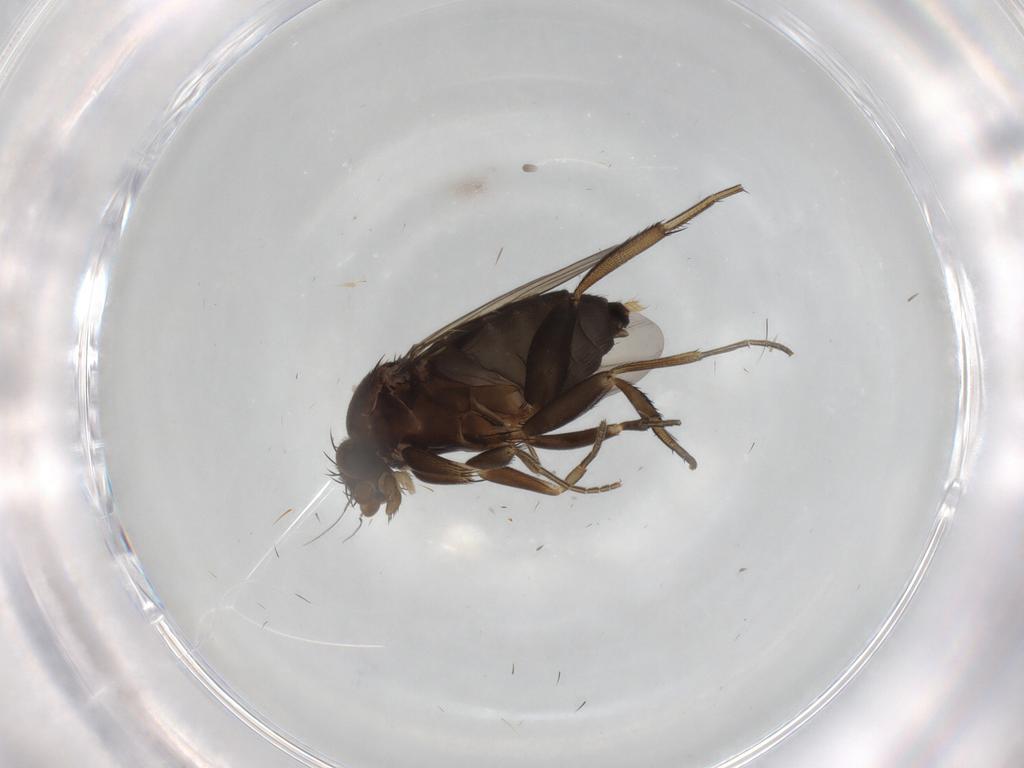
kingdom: Animalia
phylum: Arthropoda
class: Insecta
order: Diptera
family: Phoridae
